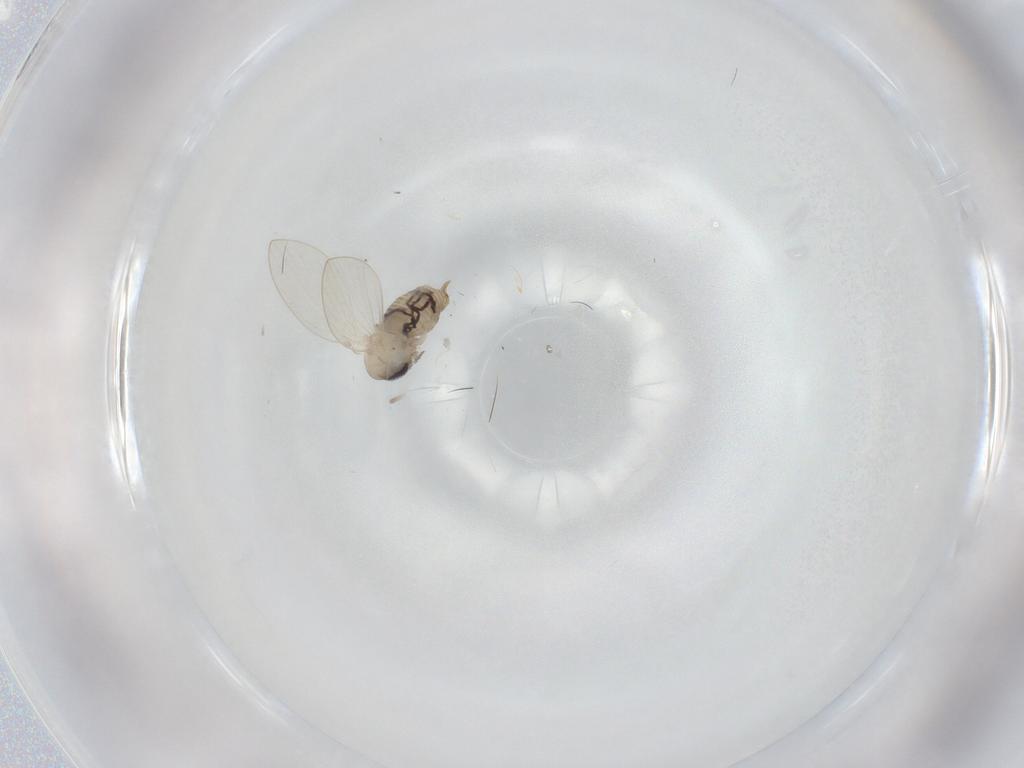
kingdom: Animalia
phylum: Arthropoda
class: Insecta
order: Diptera
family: Psychodidae
